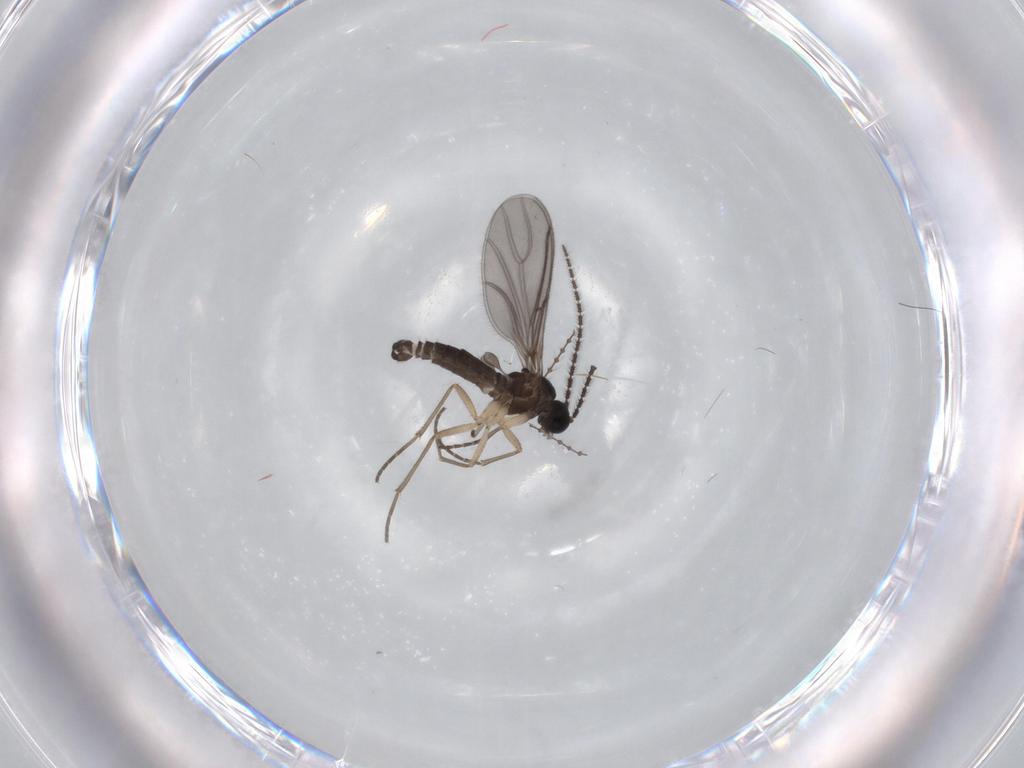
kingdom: Animalia
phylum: Arthropoda
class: Insecta
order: Diptera
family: Sciaridae
